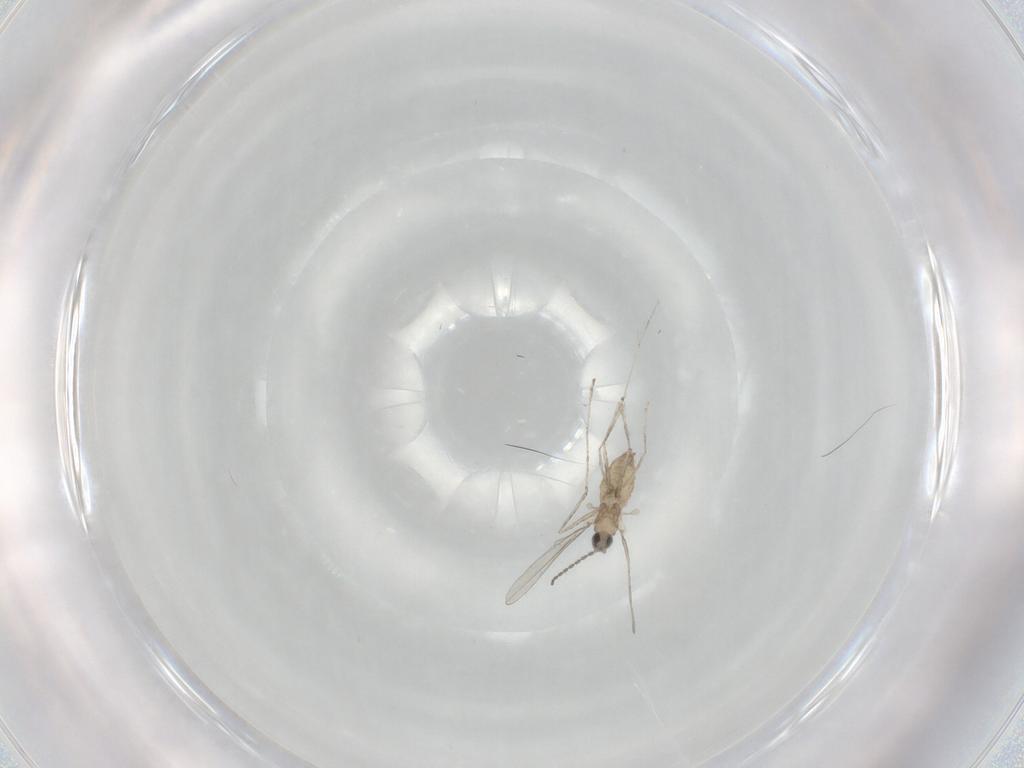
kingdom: Animalia
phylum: Arthropoda
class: Insecta
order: Diptera
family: Cecidomyiidae
